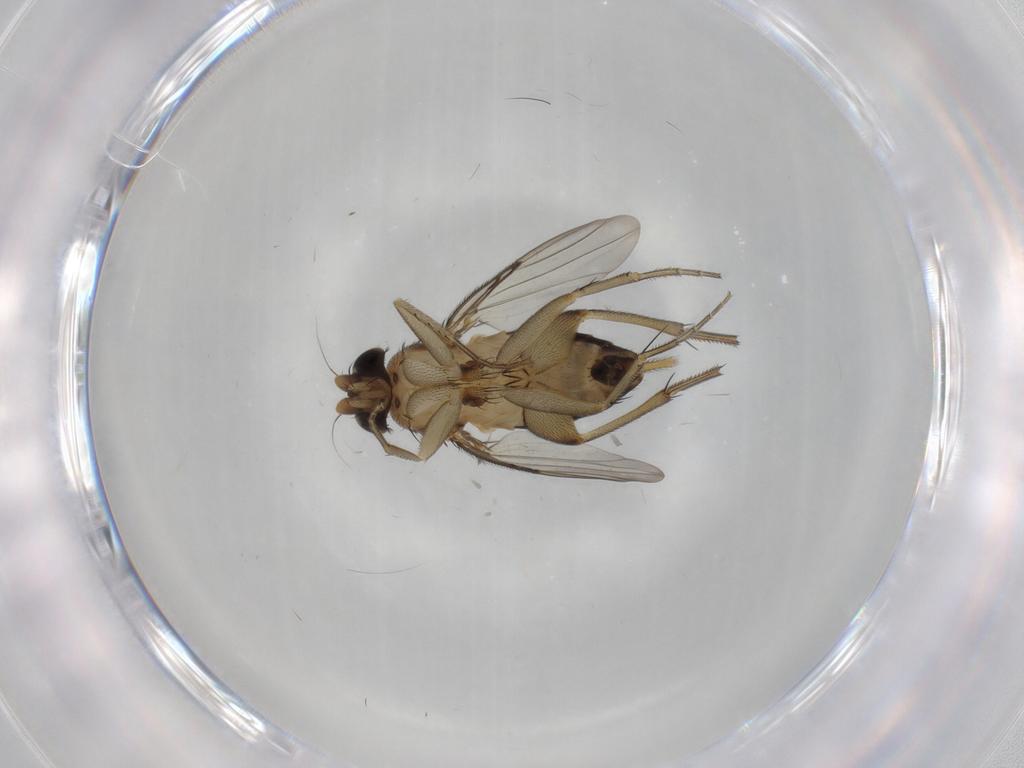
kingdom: Animalia
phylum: Arthropoda
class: Insecta
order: Diptera
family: Phoridae
